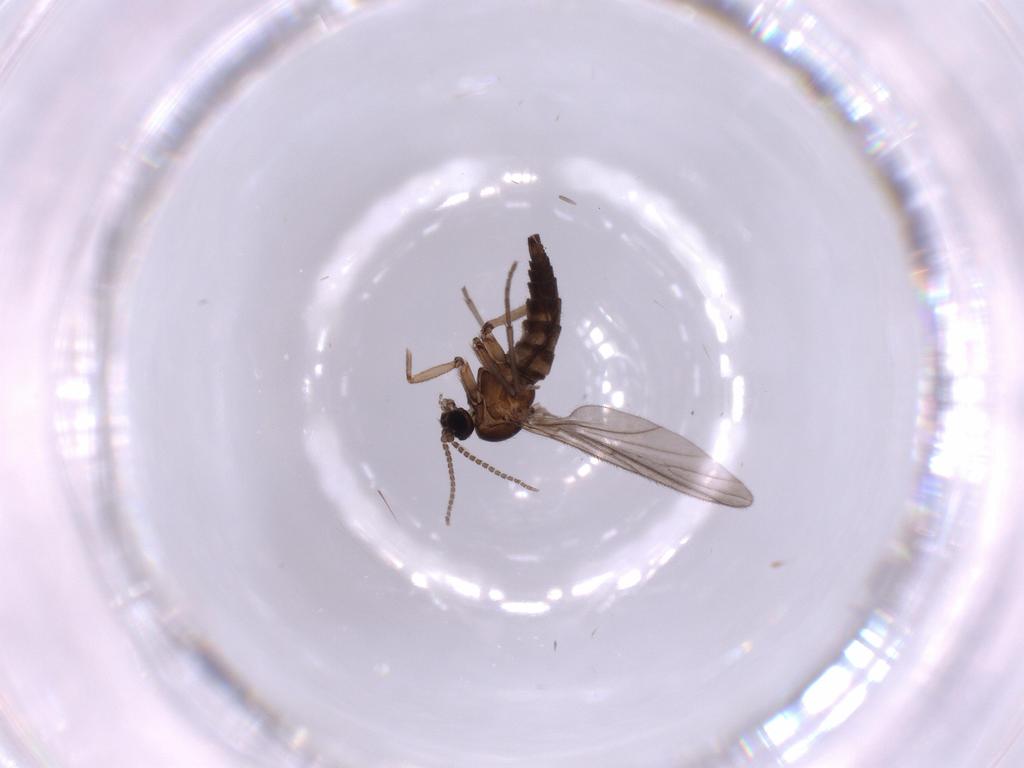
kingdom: Animalia
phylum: Arthropoda
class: Insecta
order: Diptera
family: Sciaridae
